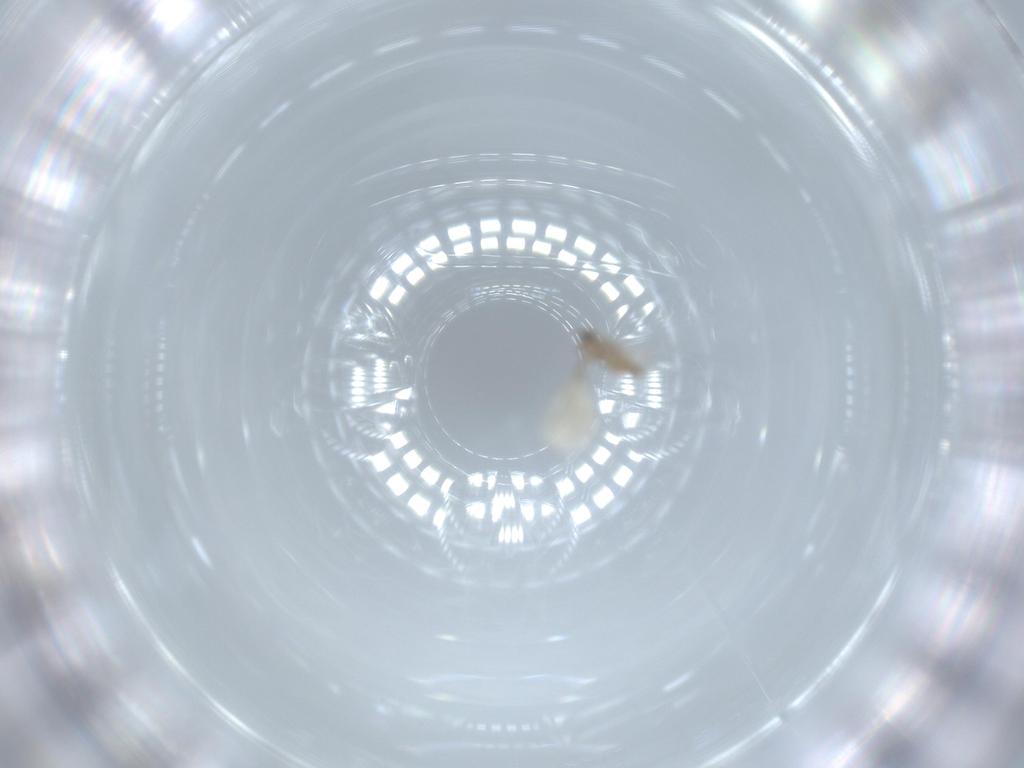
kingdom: Animalia
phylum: Arthropoda
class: Insecta
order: Diptera
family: Cecidomyiidae
